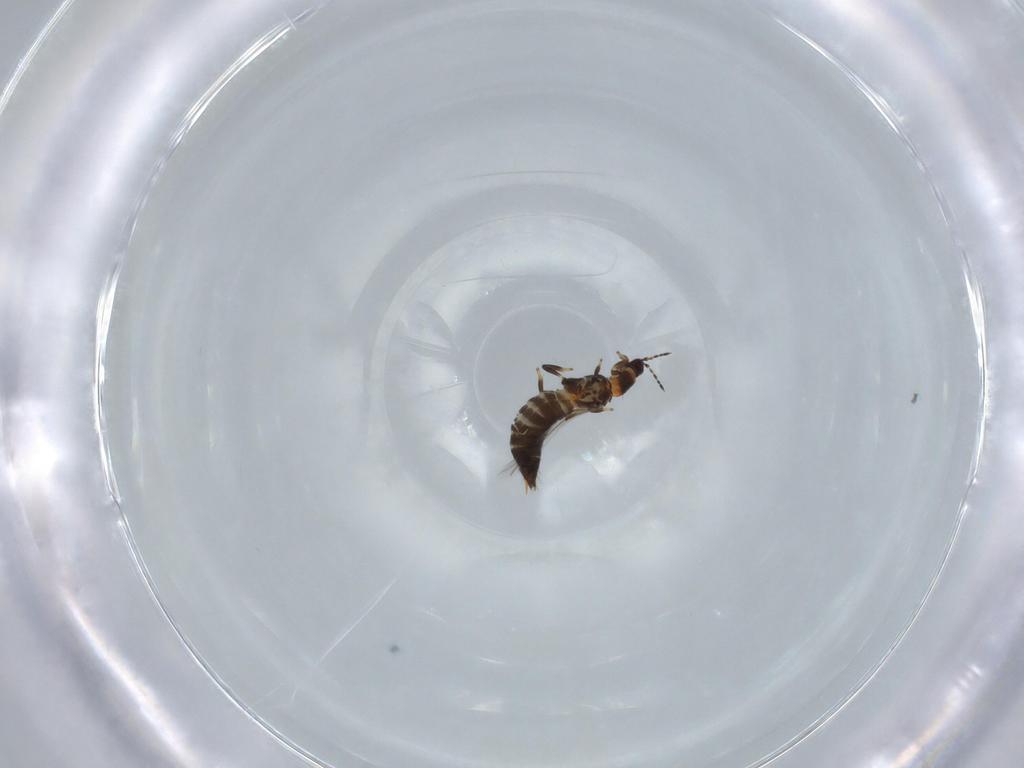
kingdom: Animalia
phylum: Arthropoda
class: Insecta
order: Thysanoptera
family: Thripidae
